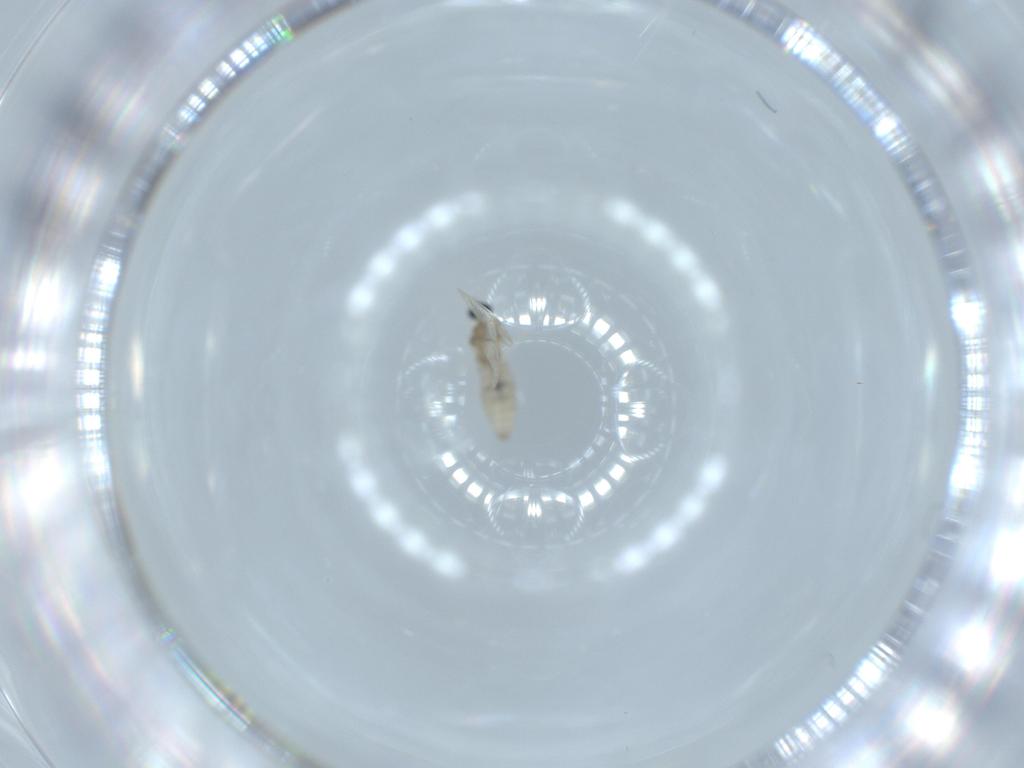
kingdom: Animalia
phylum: Arthropoda
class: Insecta
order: Diptera
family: Cecidomyiidae
